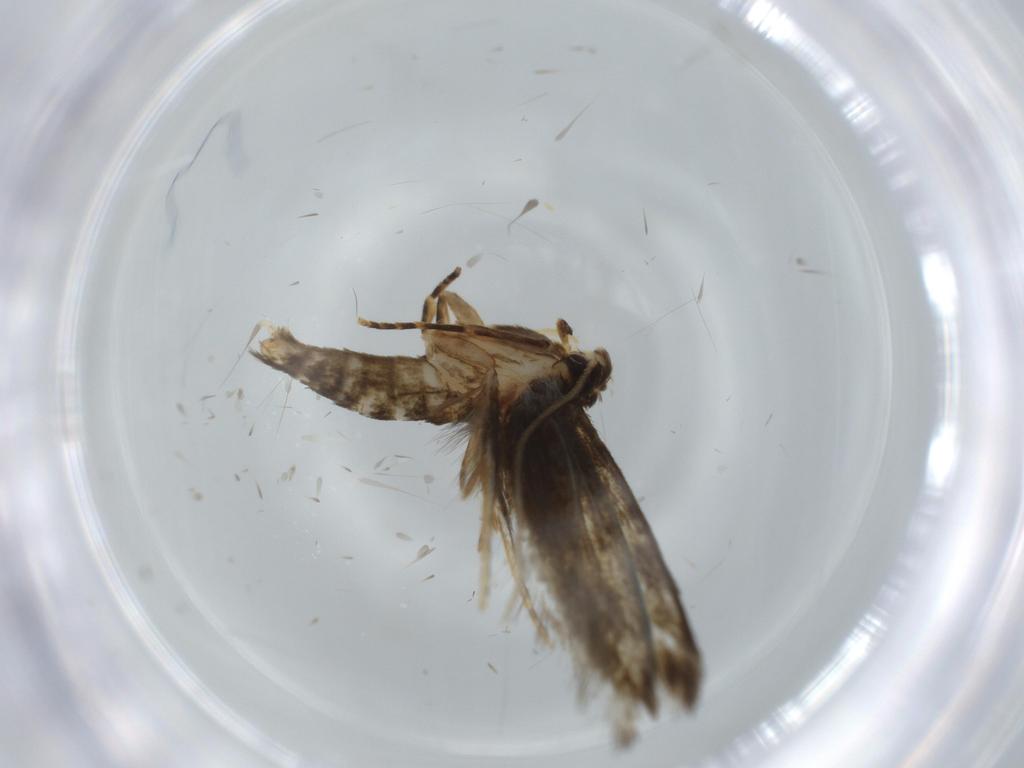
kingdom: Animalia
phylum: Arthropoda
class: Insecta
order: Lepidoptera
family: Tineidae
